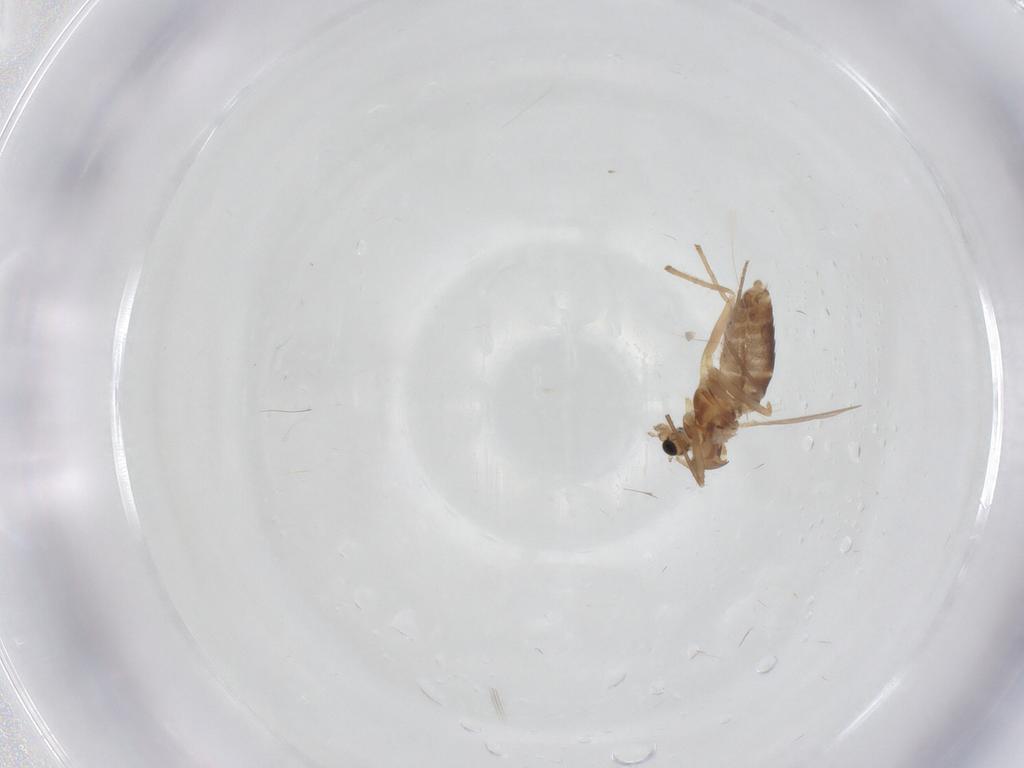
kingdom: Animalia
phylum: Arthropoda
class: Insecta
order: Diptera
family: Chironomidae
